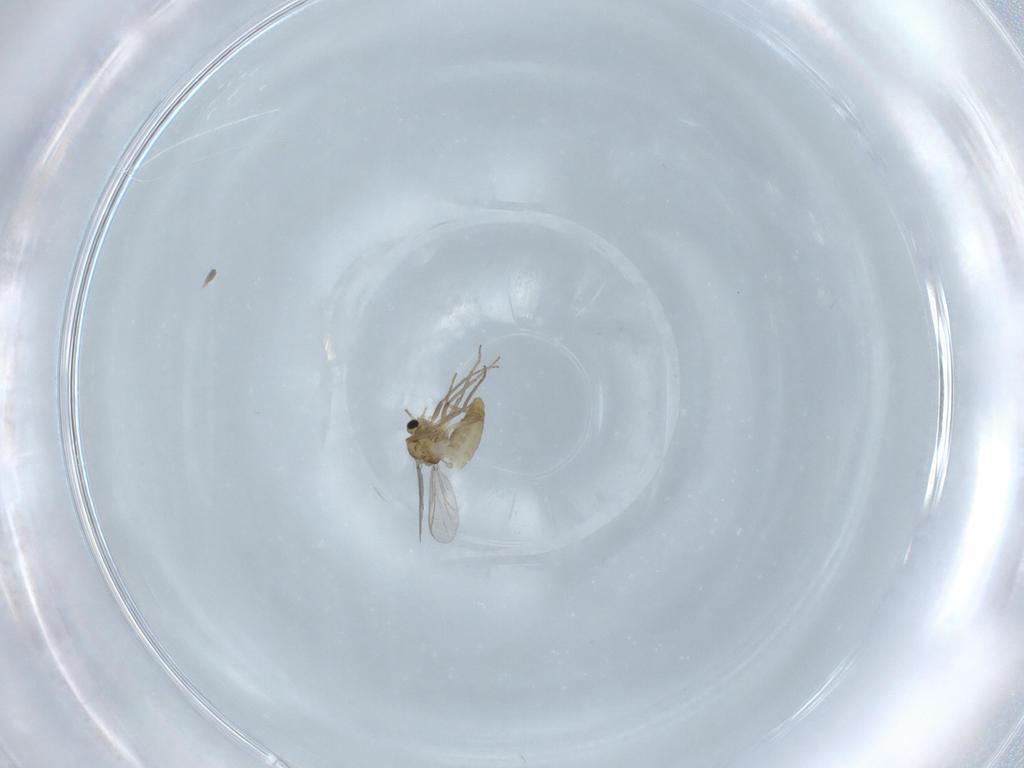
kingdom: Animalia
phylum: Arthropoda
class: Insecta
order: Diptera
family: Chironomidae
